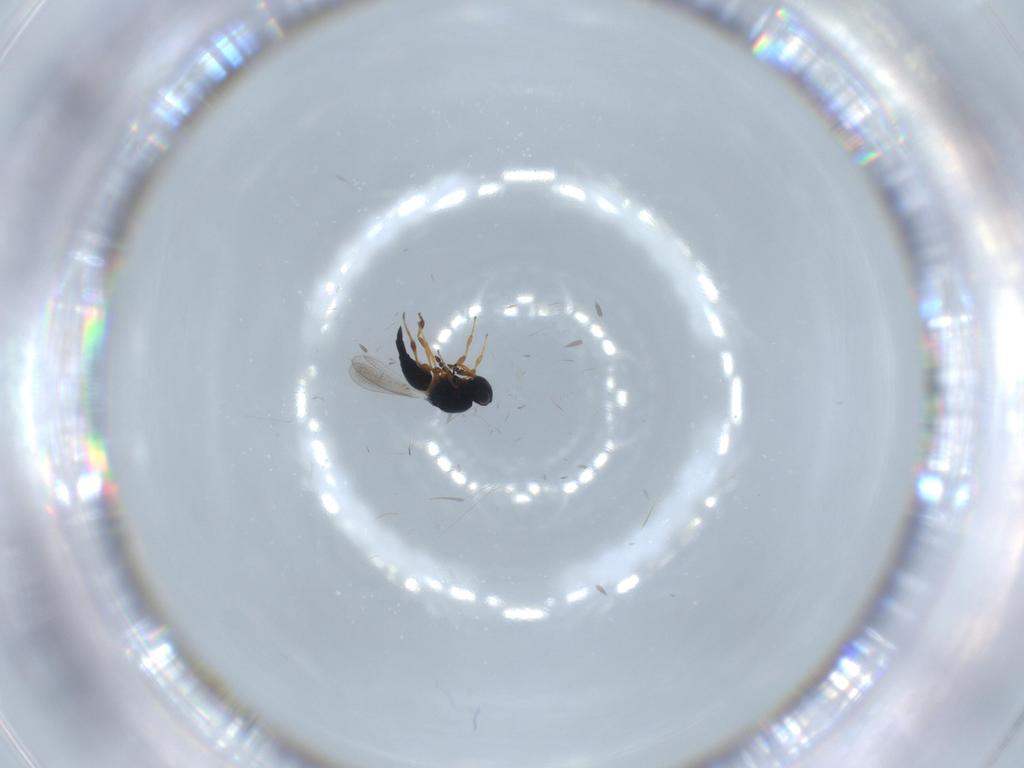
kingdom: Animalia
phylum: Arthropoda
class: Insecta
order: Hymenoptera
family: Platygastridae
